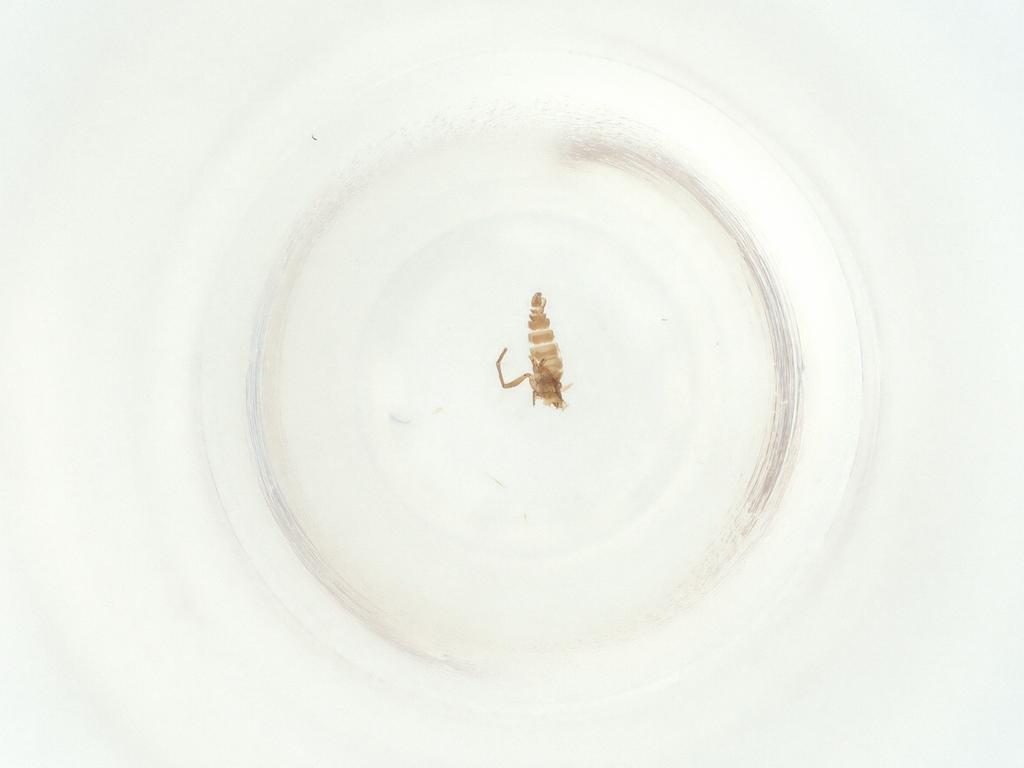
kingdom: Animalia
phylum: Arthropoda
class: Insecta
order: Diptera
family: Sciaridae
